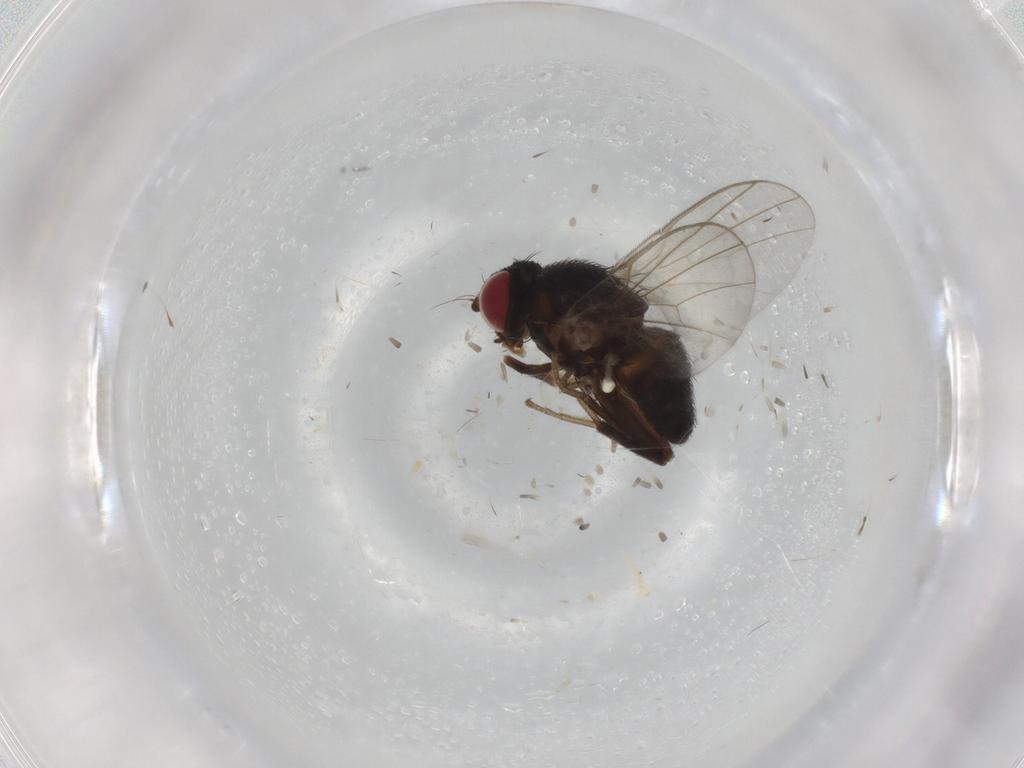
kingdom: Animalia
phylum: Arthropoda
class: Insecta
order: Diptera
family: Agromyzidae
